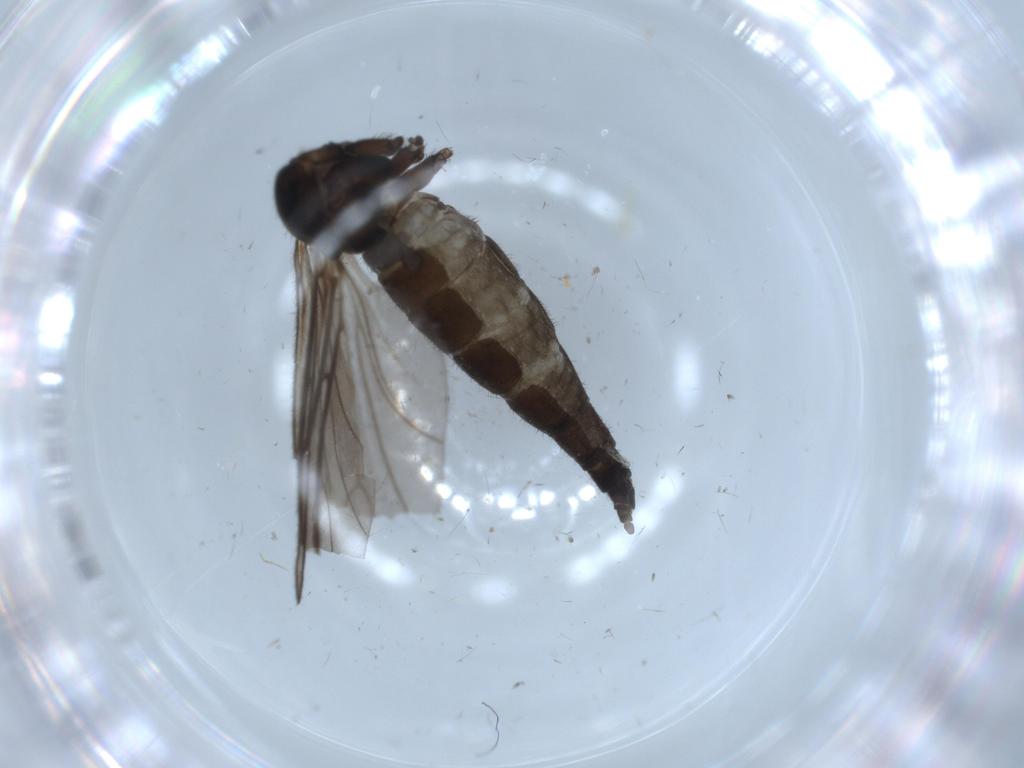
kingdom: Animalia
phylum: Arthropoda
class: Insecta
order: Diptera
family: Sciaridae
